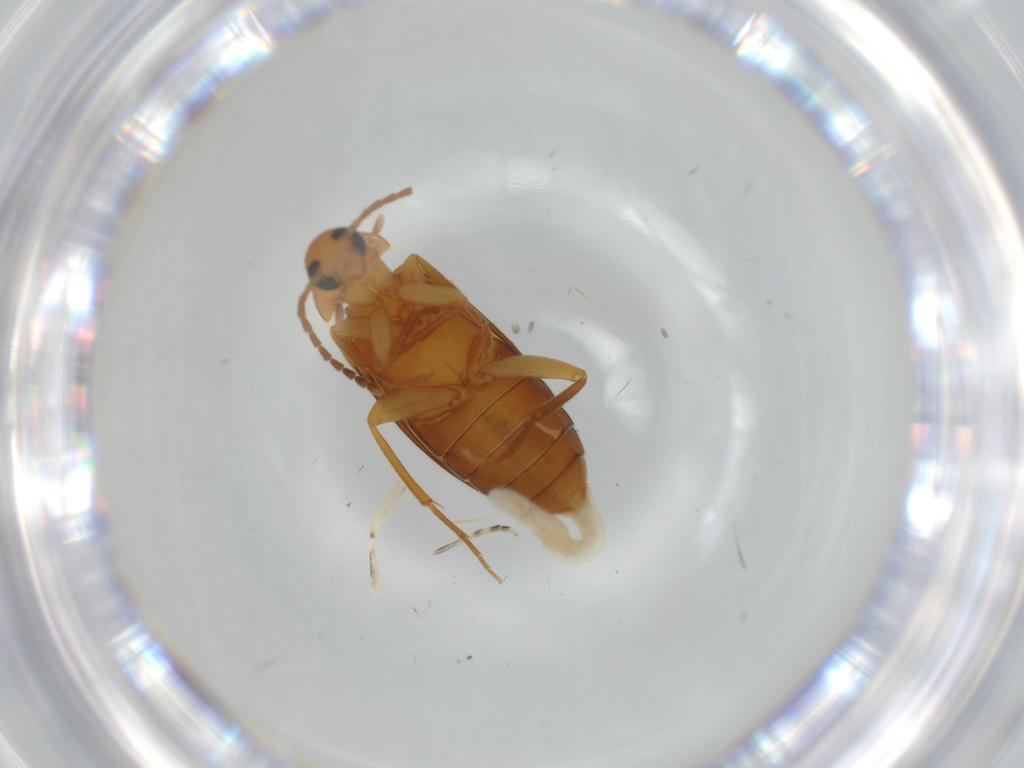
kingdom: Animalia
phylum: Arthropoda
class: Insecta
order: Coleoptera
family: Scraptiidae
